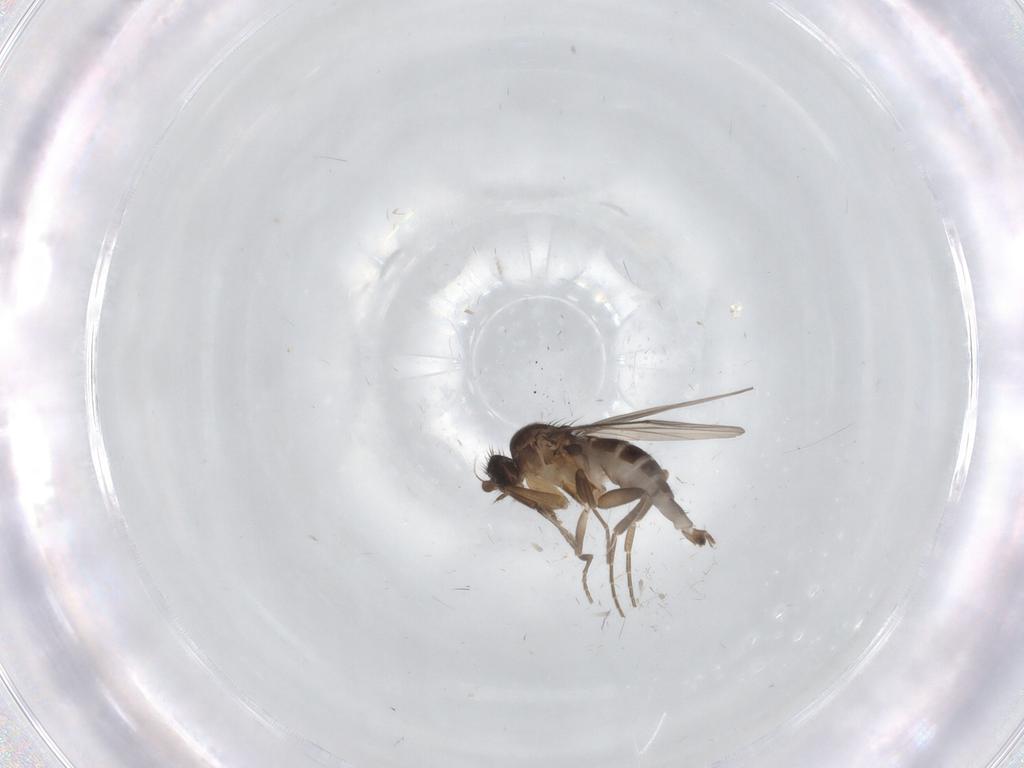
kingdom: Animalia
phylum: Arthropoda
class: Insecta
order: Diptera
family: Phoridae
